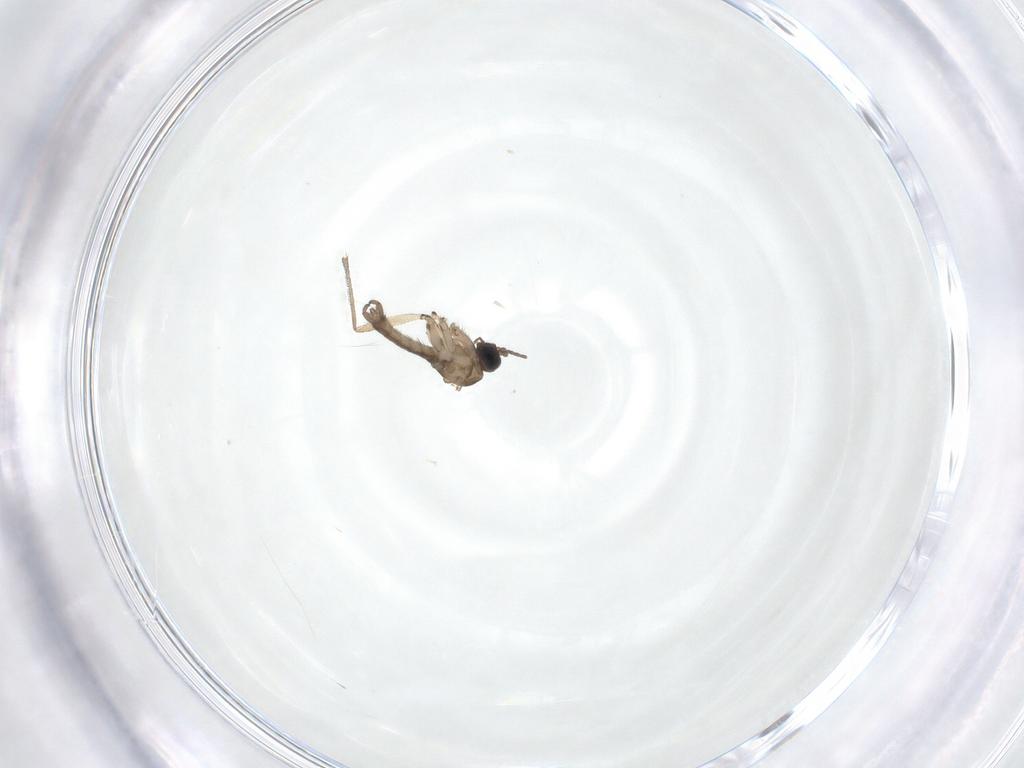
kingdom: Animalia
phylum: Arthropoda
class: Insecta
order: Diptera
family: Sciaridae
